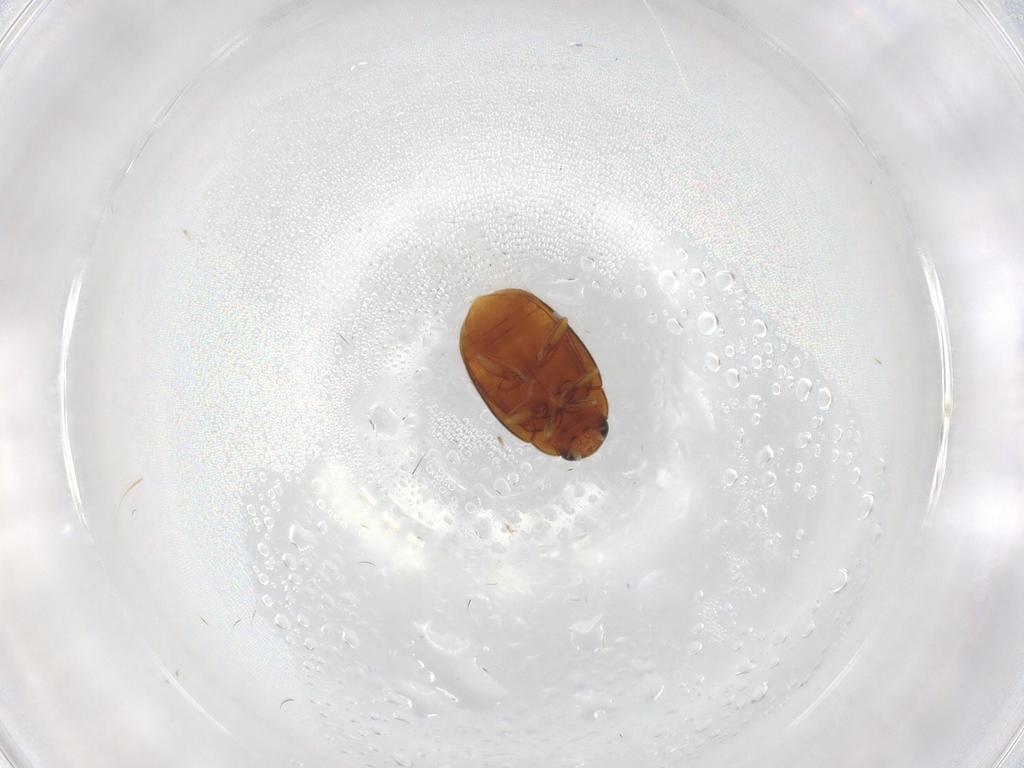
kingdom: Animalia
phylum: Arthropoda
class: Insecta
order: Coleoptera
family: Coccinellidae
